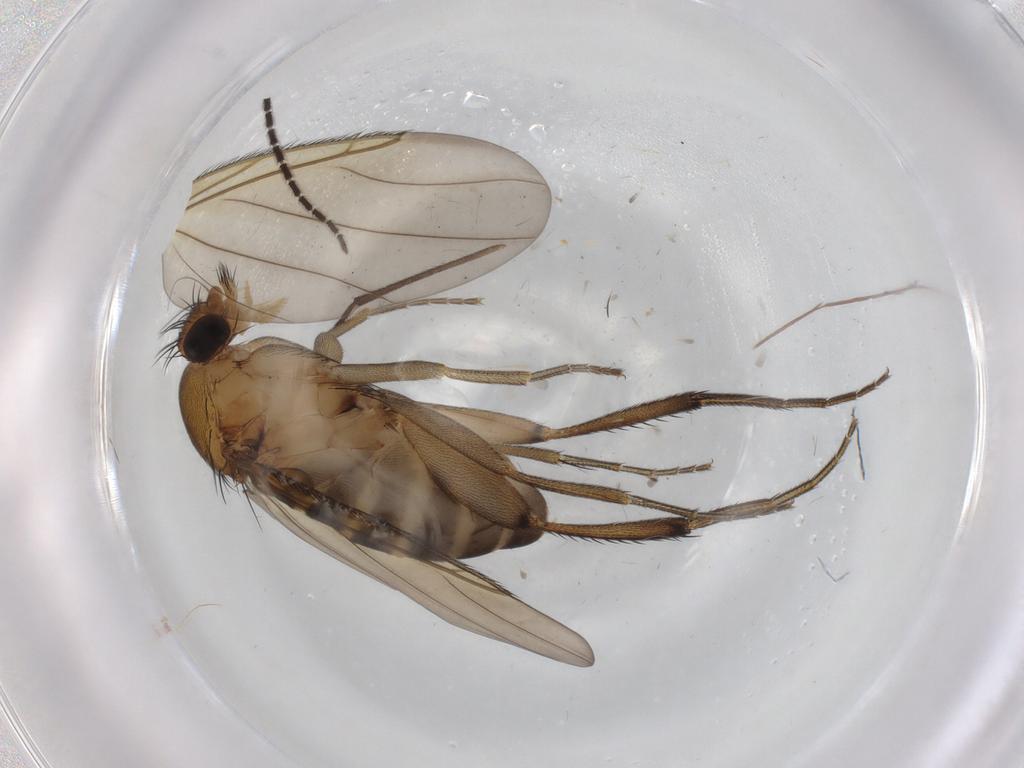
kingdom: Animalia
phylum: Arthropoda
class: Insecta
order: Diptera
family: Phoridae
